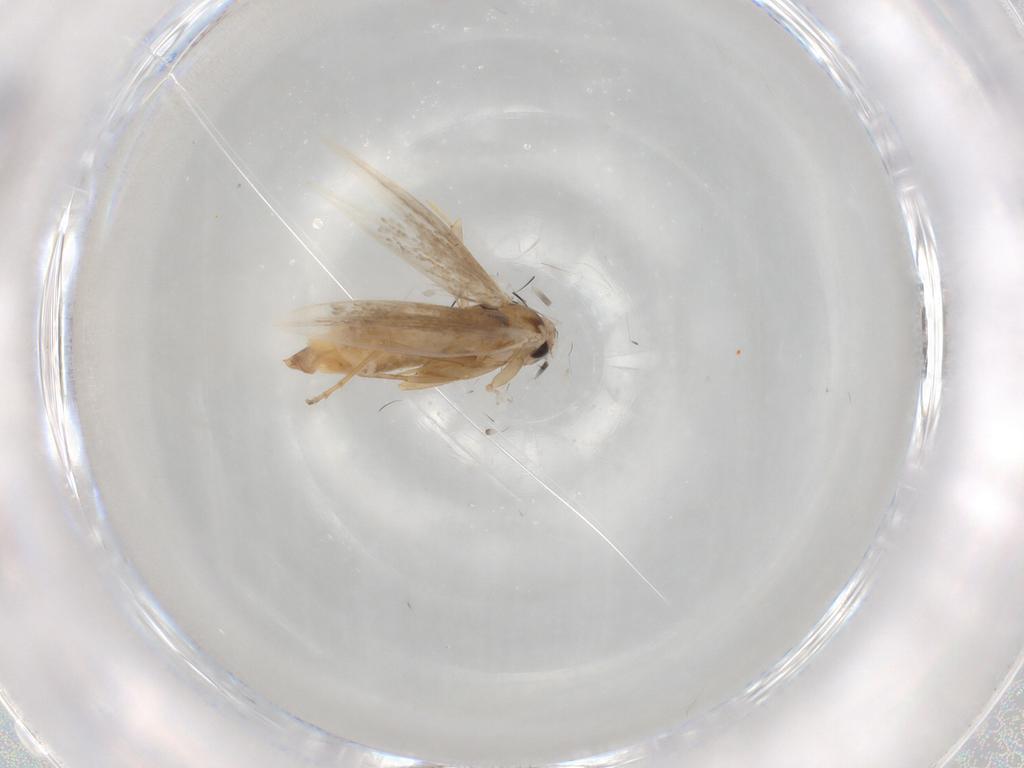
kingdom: Animalia
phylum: Arthropoda
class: Insecta
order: Lepidoptera
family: Bucculatricidae
